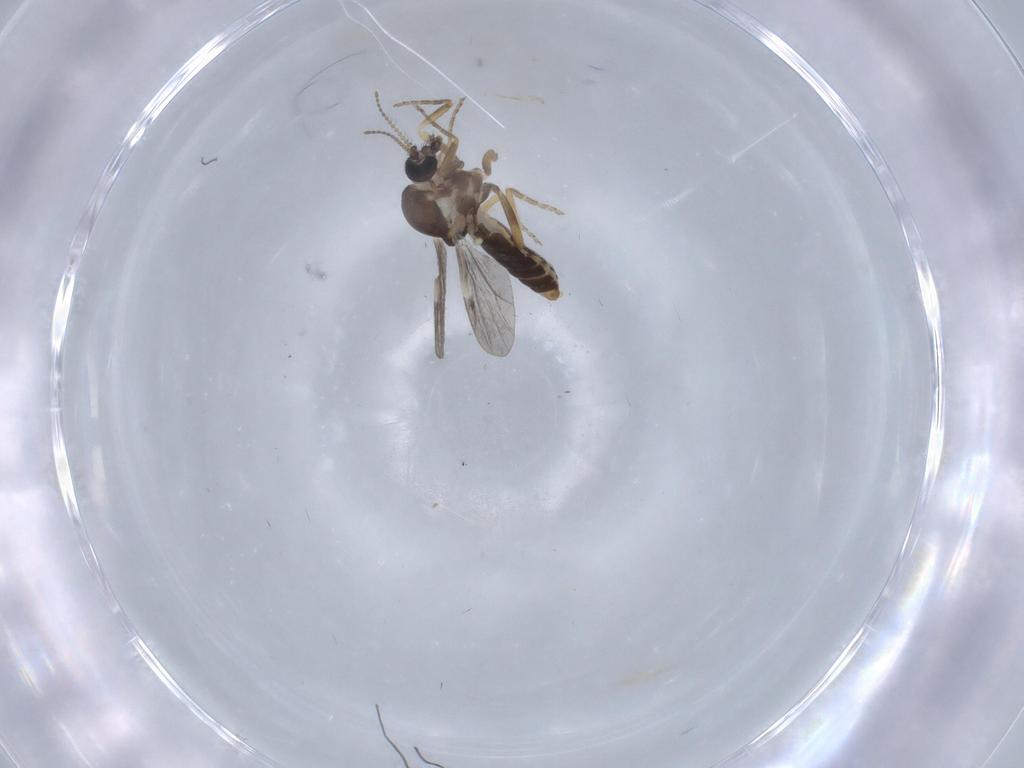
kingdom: Animalia
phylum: Arthropoda
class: Insecta
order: Diptera
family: Ceratopogonidae
